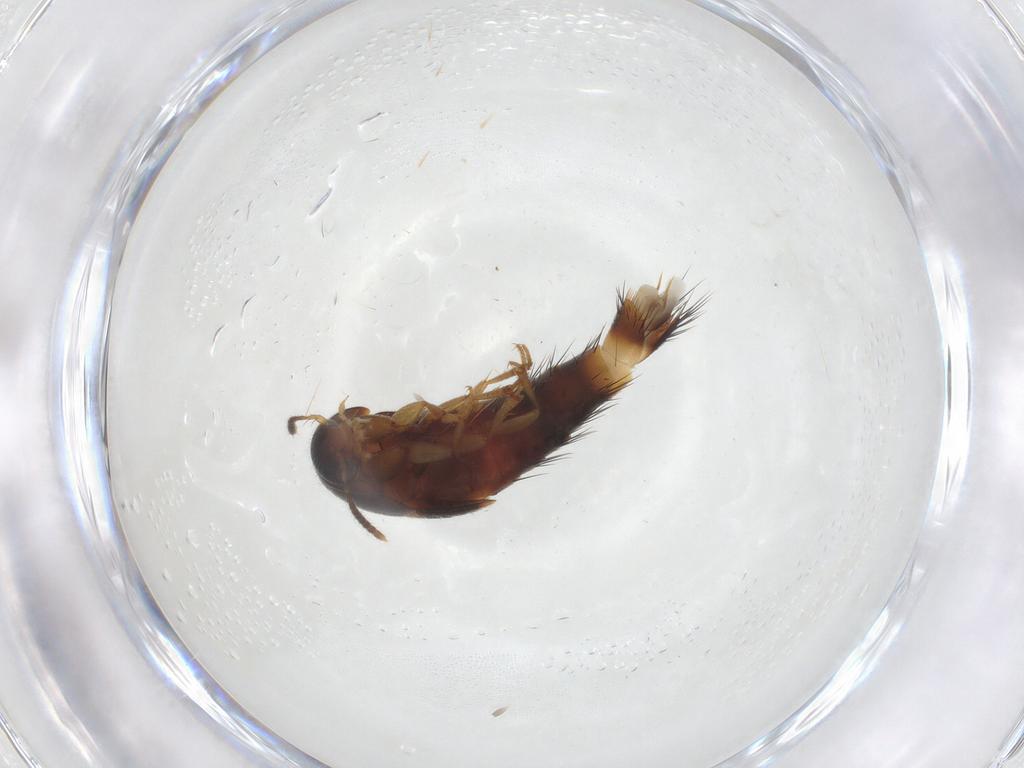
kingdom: Animalia
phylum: Arthropoda
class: Insecta
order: Coleoptera
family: Staphylinidae
